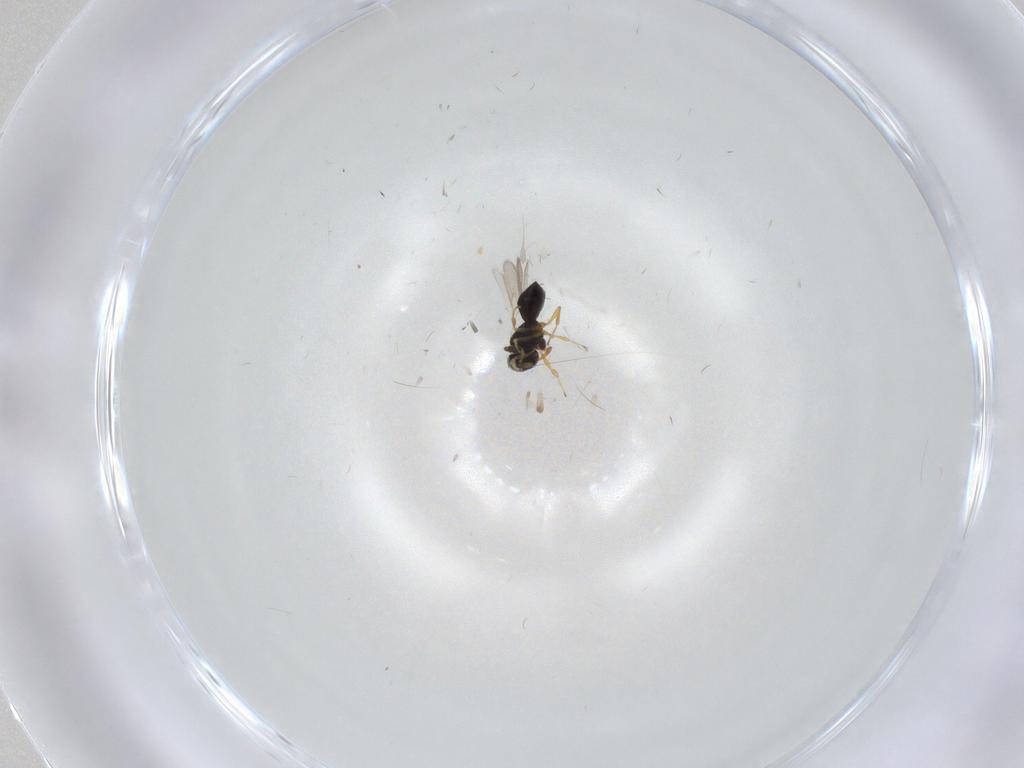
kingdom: Animalia
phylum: Arthropoda
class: Insecta
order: Hymenoptera
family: Scelionidae
